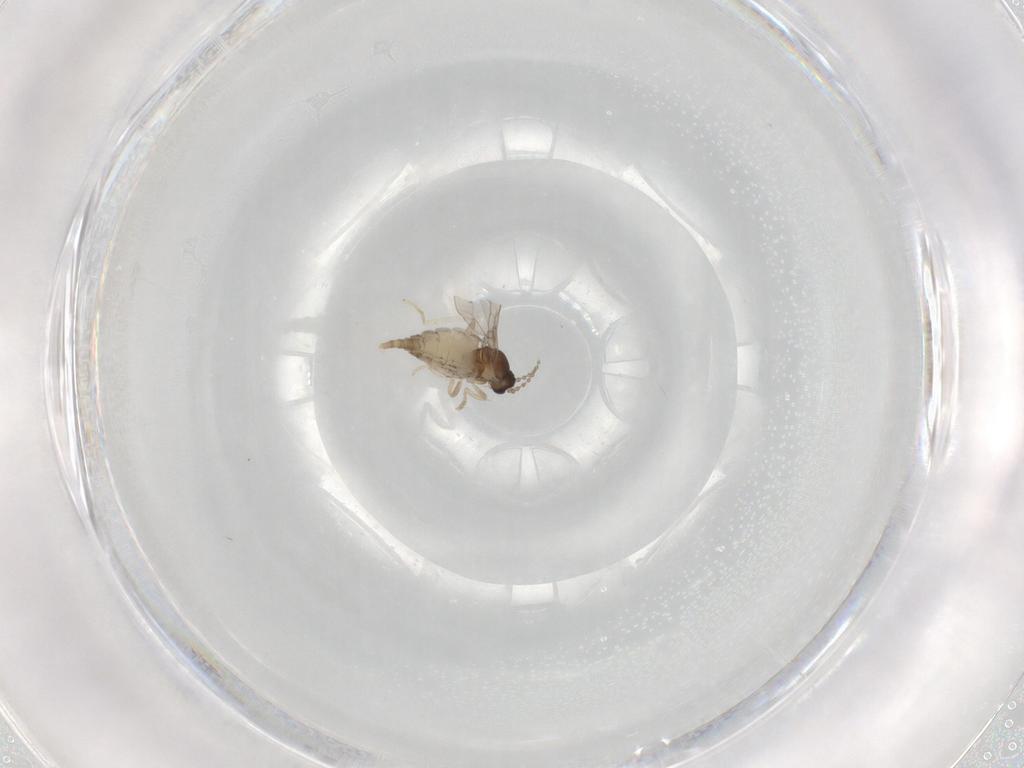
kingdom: Animalia
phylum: Arthropoda
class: Insecta
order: Diptera
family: Cecidomyiidae
